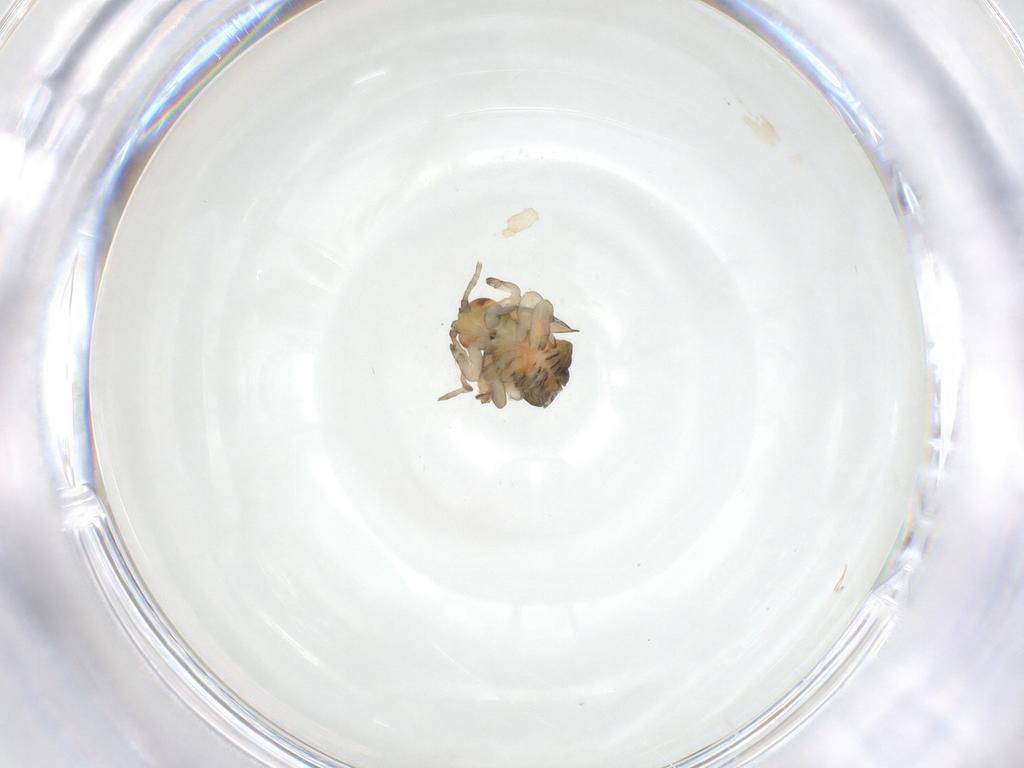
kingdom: Animalia
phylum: Arthropoda
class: Insecta
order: Diptera
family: Fergusoninidae
